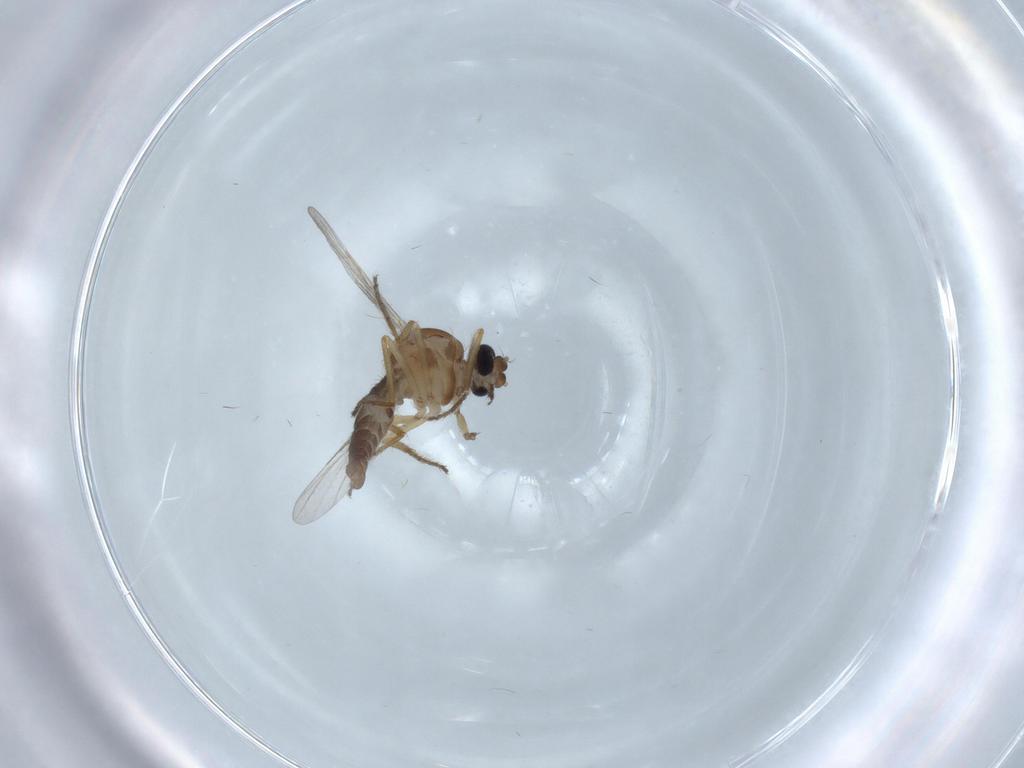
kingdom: Animalia
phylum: Arthropoda
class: Insecta
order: Diptera
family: Ceratopogonidae
